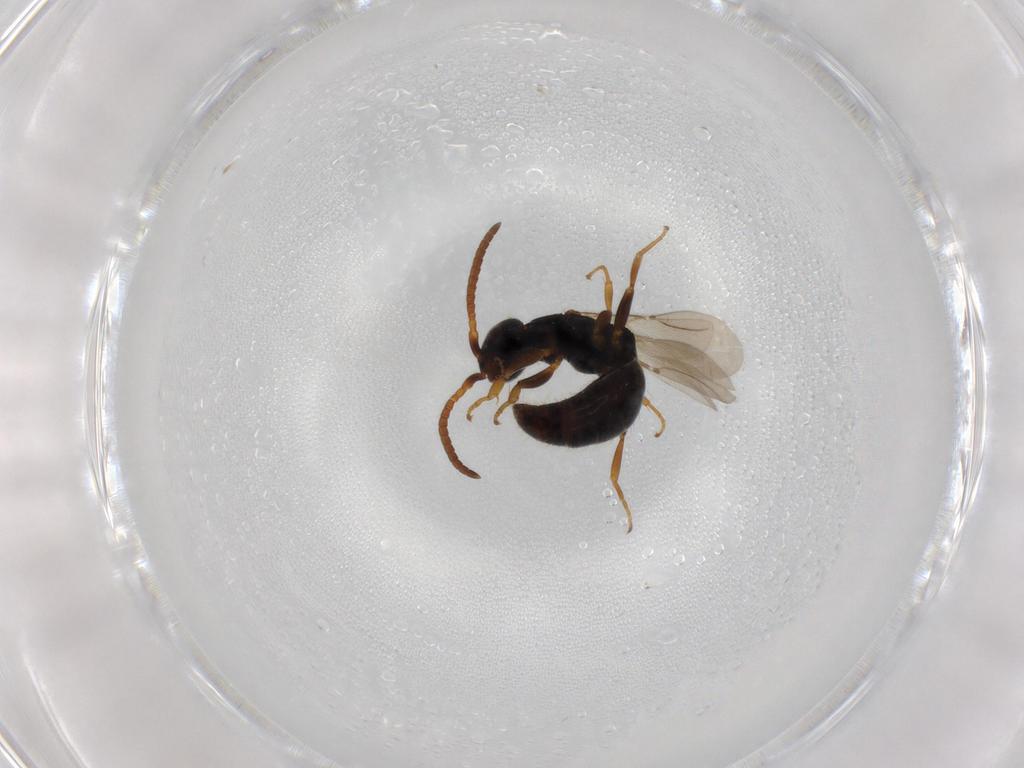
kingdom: Animalia
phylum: Arthropoda
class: Insecta
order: Hymenoptera
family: Bethylidae
